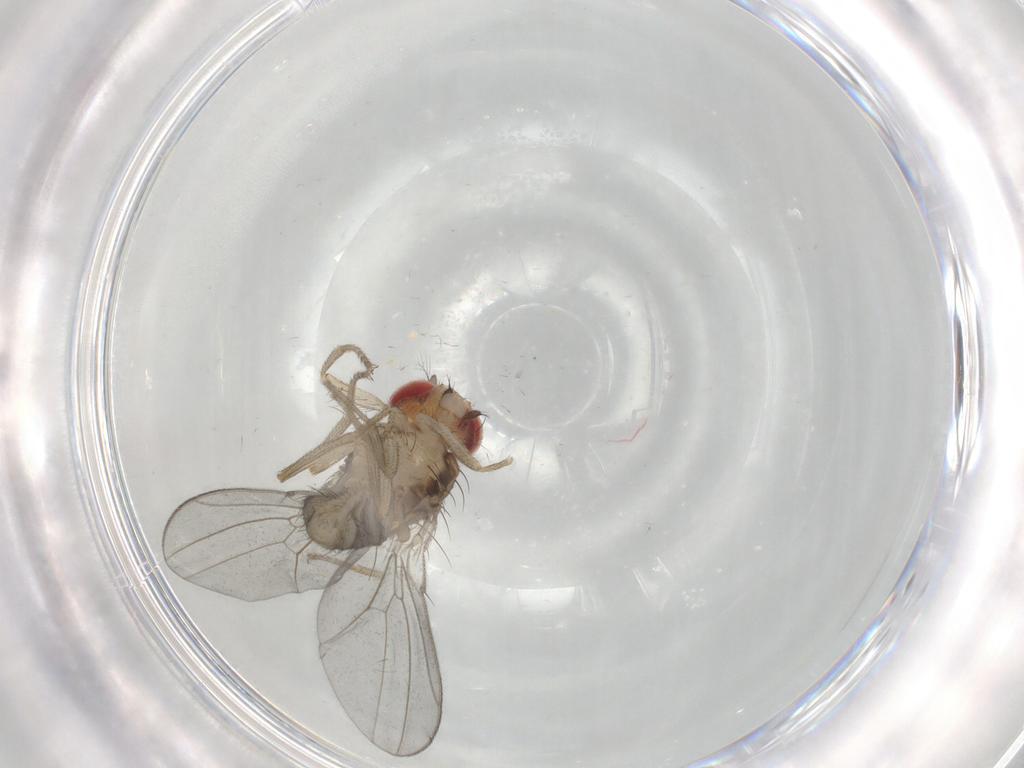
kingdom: Animalia
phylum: Arthropoda
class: Insecta
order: Diptera
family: Drosophilidae
